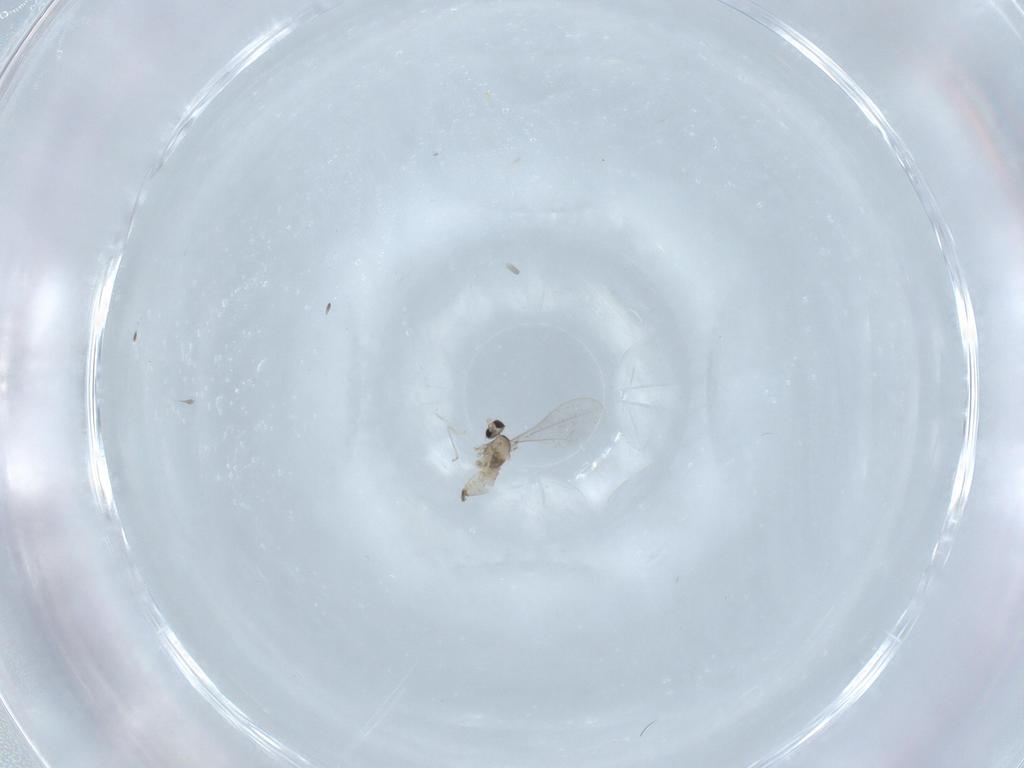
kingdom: Animalia
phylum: Arthropoda
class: Insecta
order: Diptera
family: Cecidomyiidae
